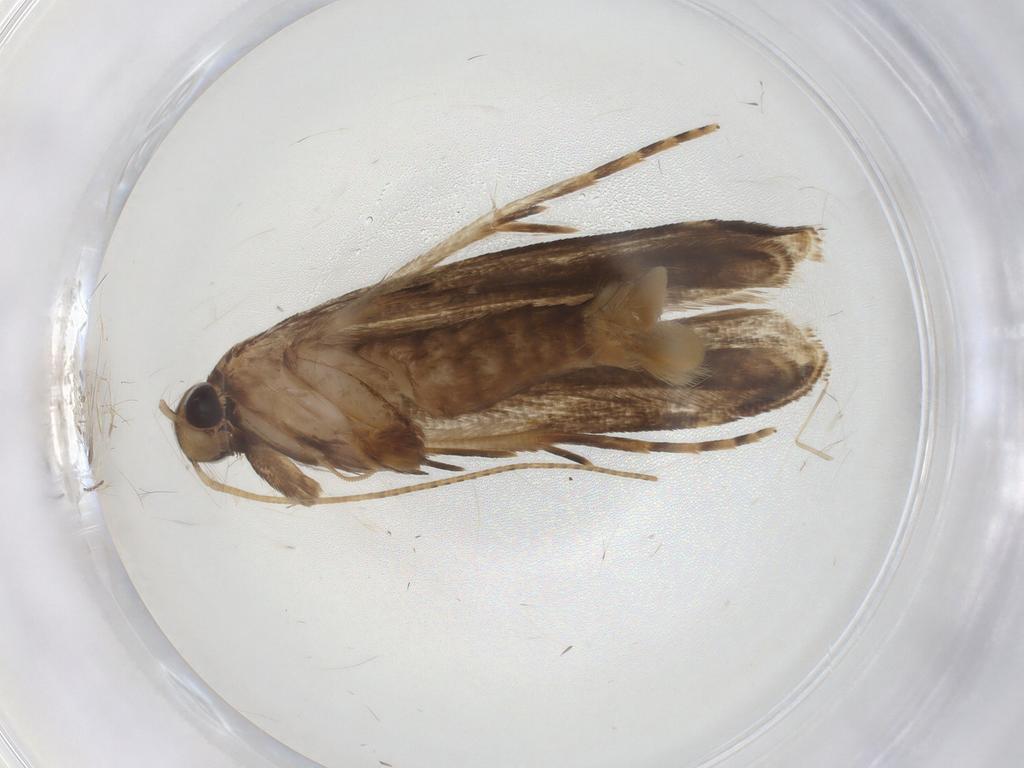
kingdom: Animalia
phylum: Arthropoda
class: Insecta
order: Lepidoptera
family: Gelechiidae
